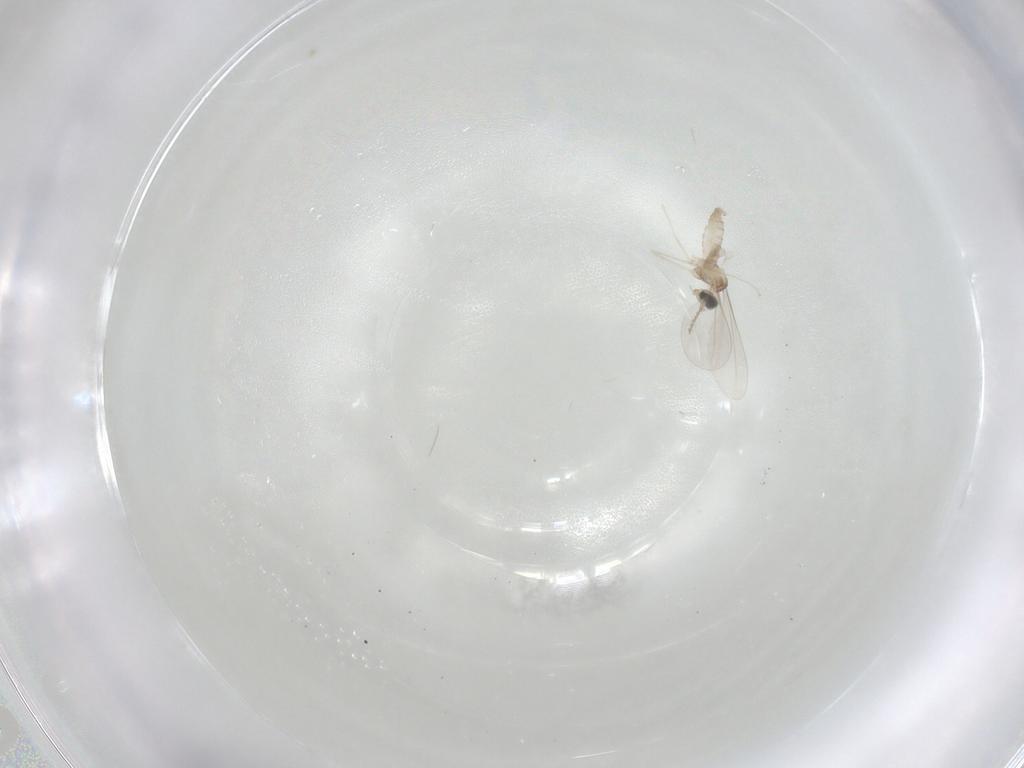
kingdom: Animalia
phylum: Arthropoda
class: Insecta
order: Diptera
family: Cecidomyiidae
